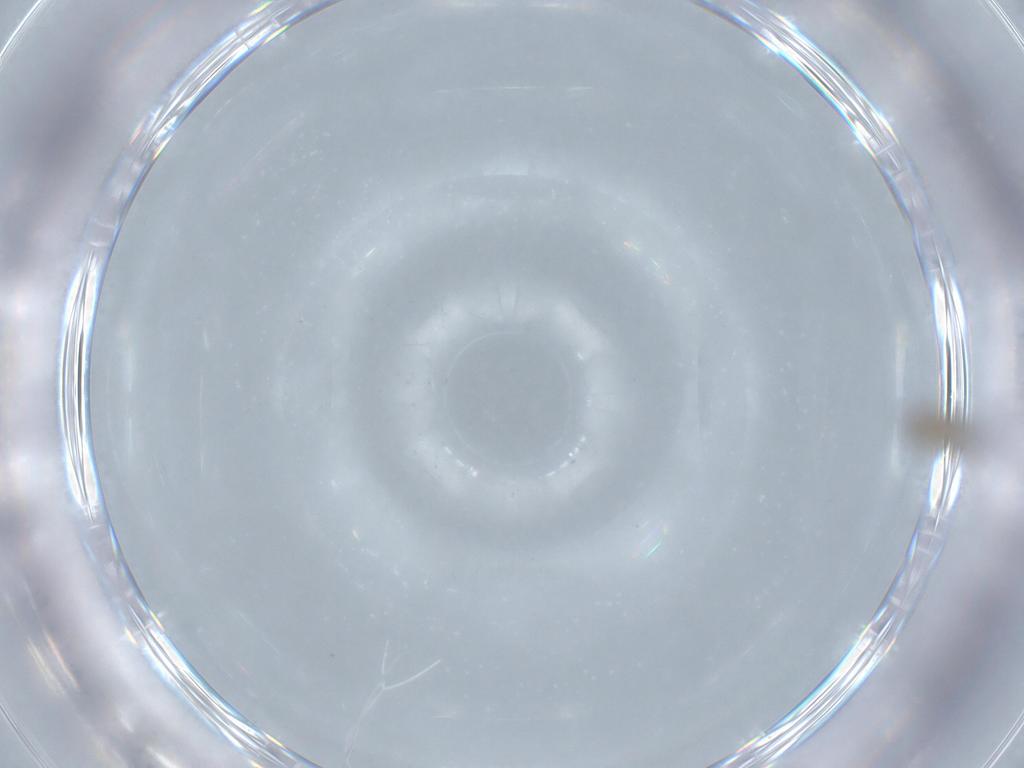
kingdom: Animalia
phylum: Arthropoda
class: Insecta
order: Diptera
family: Cecidomyiidae
